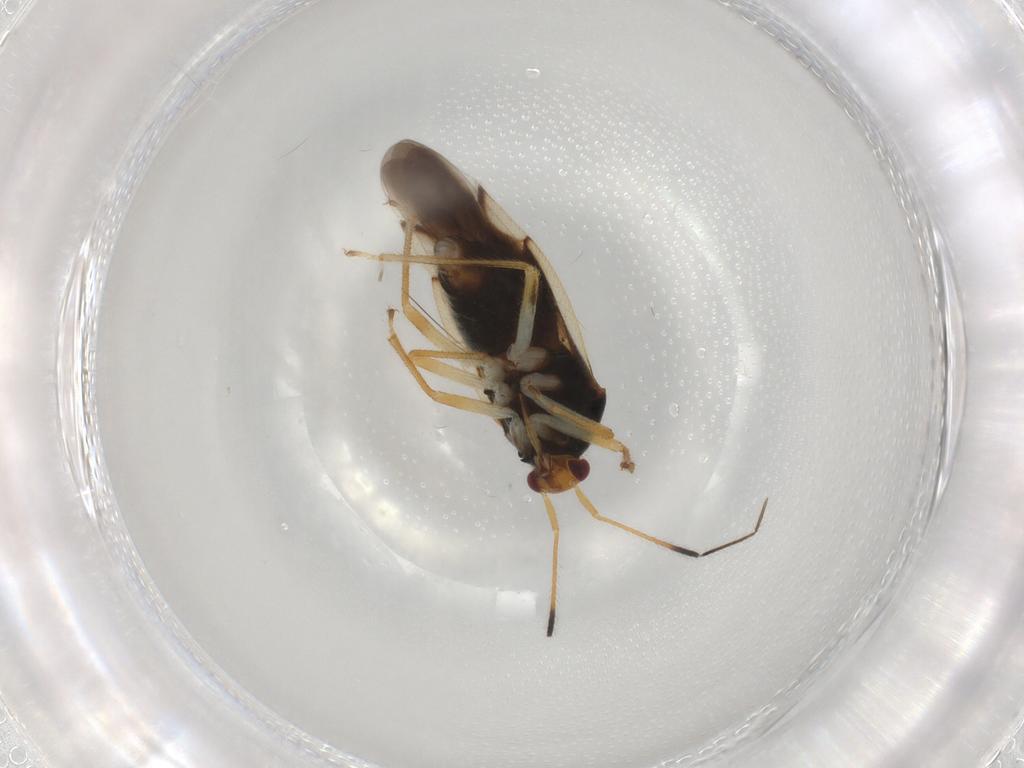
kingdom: Animalia
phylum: Arthropoda
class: Insecta
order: Hemiptera
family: Miridae
